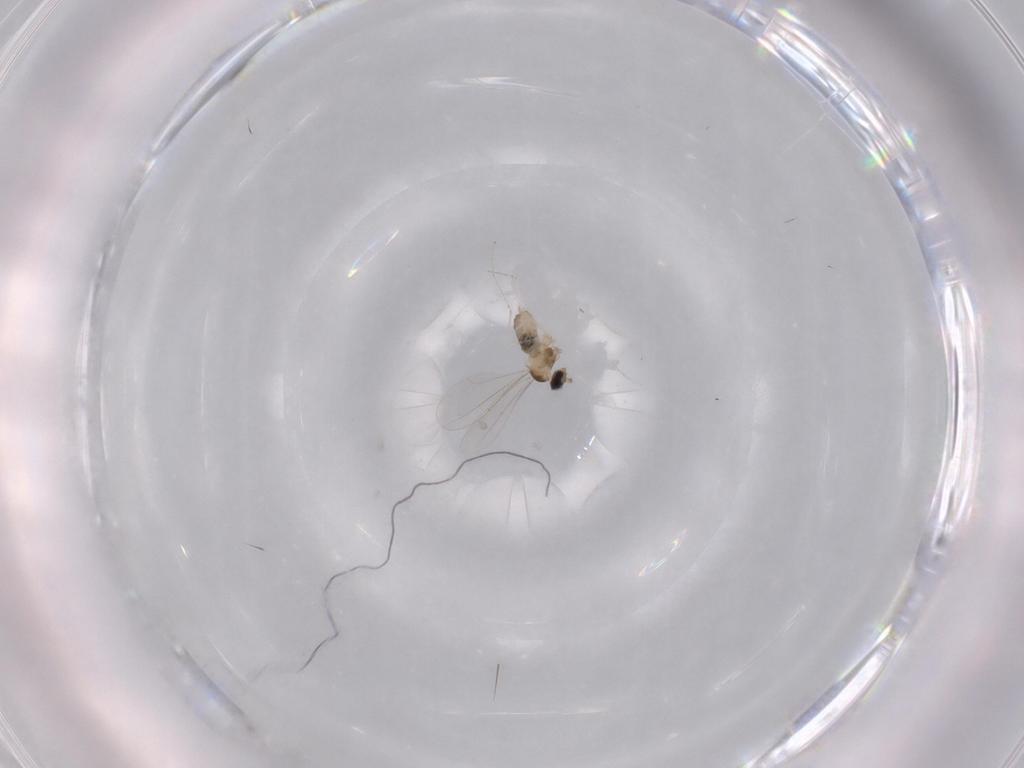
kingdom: Animalia
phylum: Arthropoda
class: Insecta
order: Diptera
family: Cecidomyiidae
